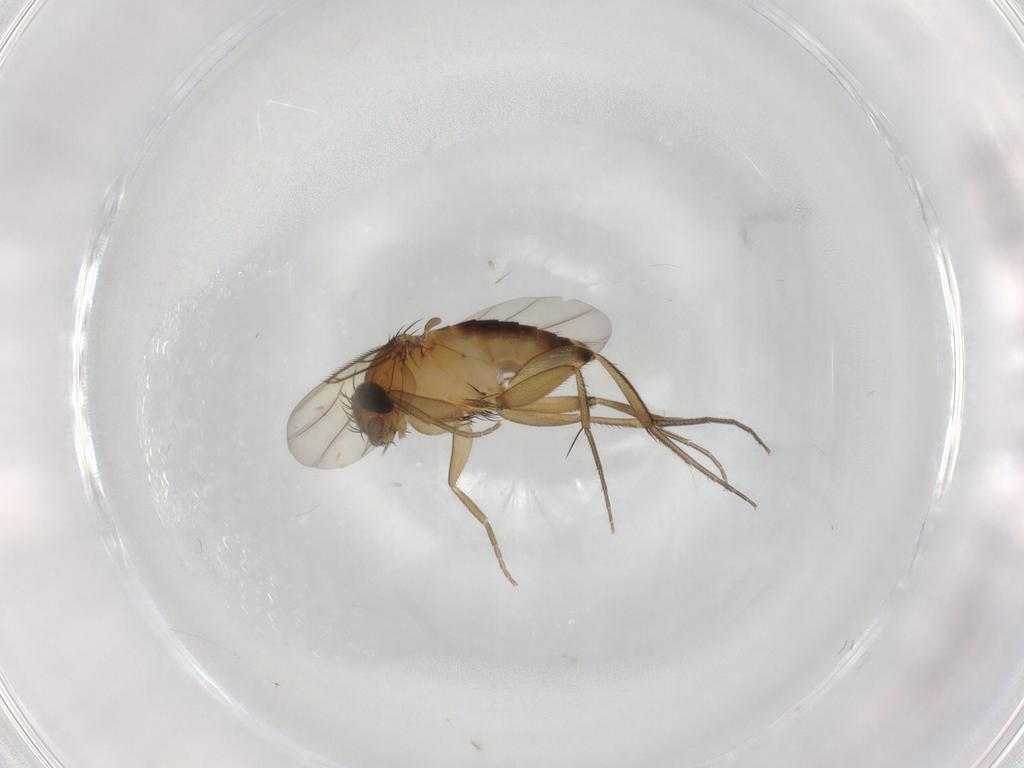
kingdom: Animalia
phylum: Arthropoda
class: Insecta
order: Diptera
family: Phoridae
